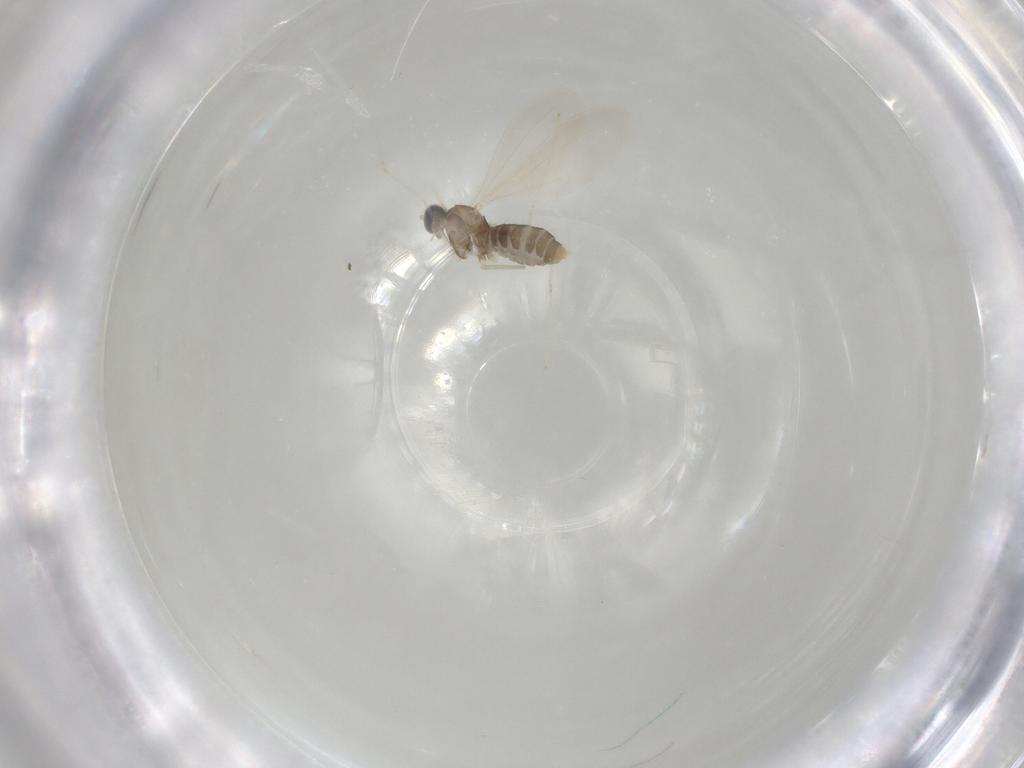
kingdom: Animalia
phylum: Arthropoda
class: Insecta
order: Diptera
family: Cecidomyiidae
